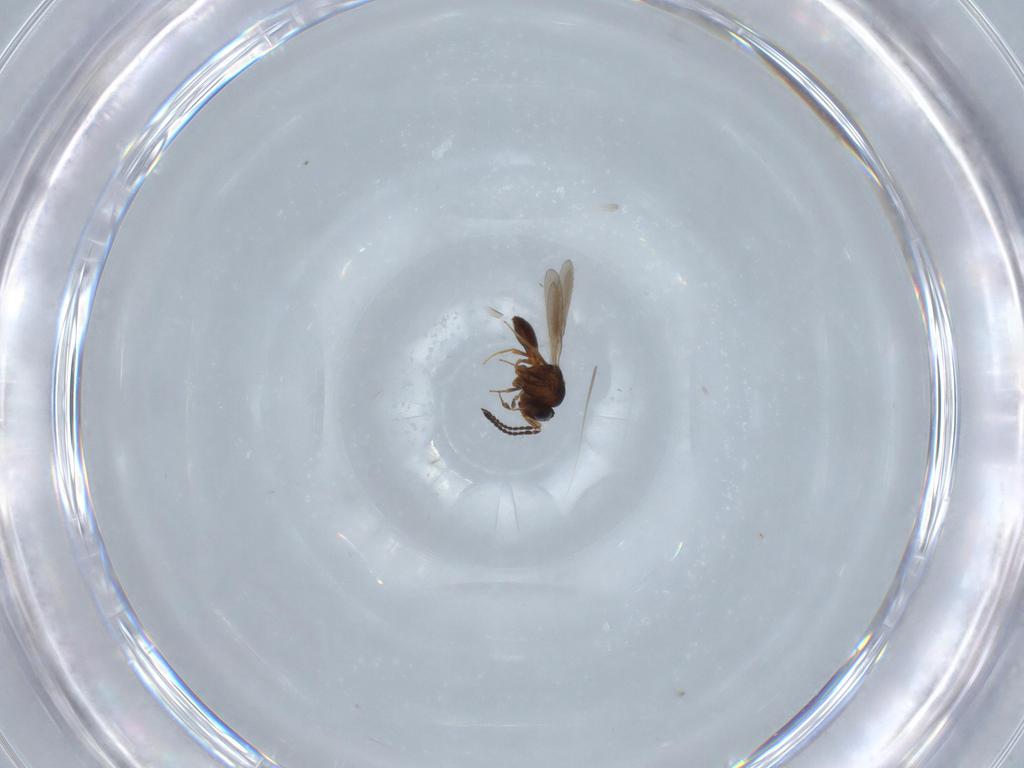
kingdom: Animalia
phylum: Arthropoda
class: Insecta
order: Hymenoptera
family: Scelionidae
